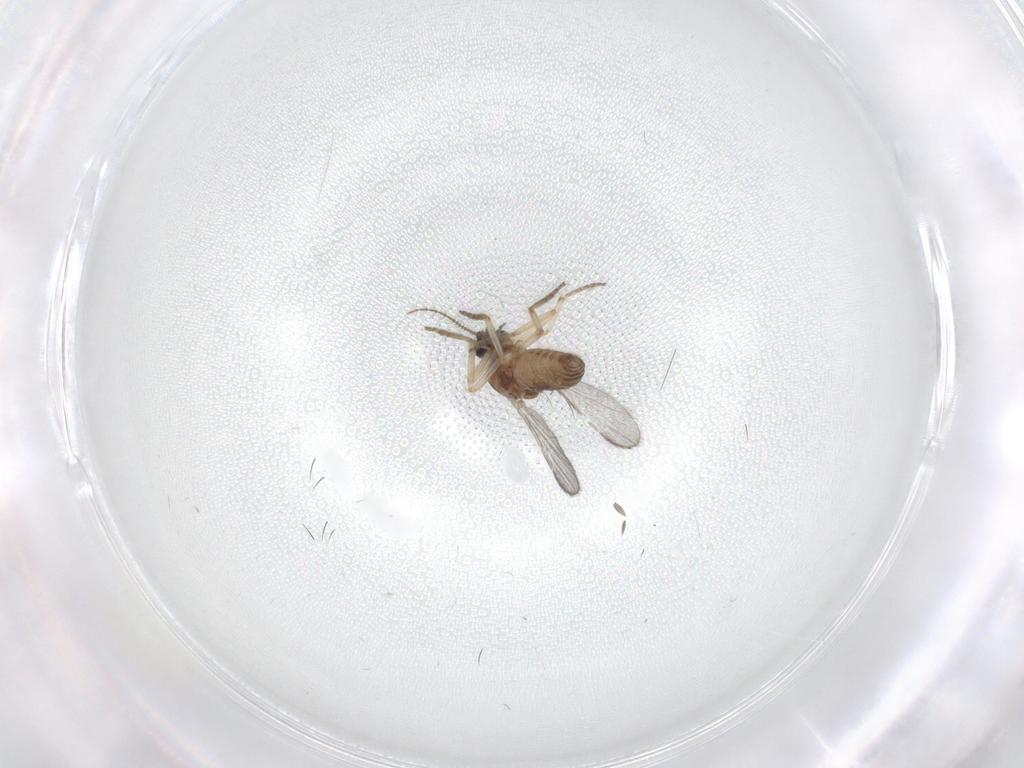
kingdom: Animalia
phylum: Arthropoda
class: Insecta
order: Diptera
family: Ceratopogonidae
